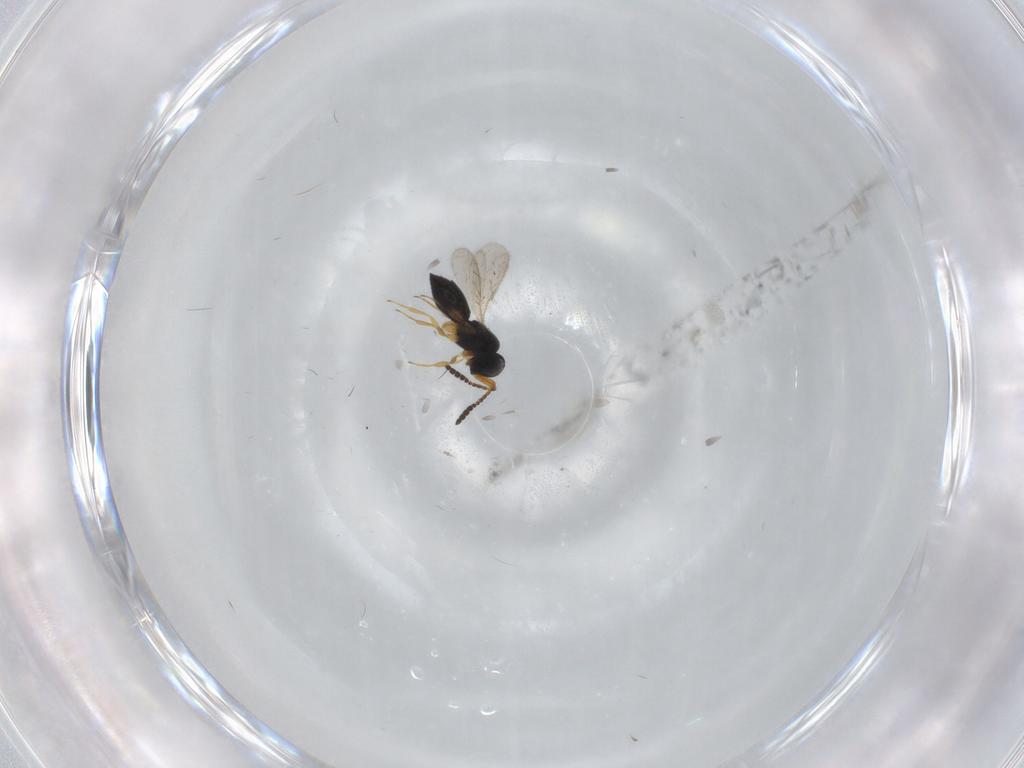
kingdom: Animalia
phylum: Arthropoda
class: Insecta
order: Hymenoptera
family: Scelionidae
